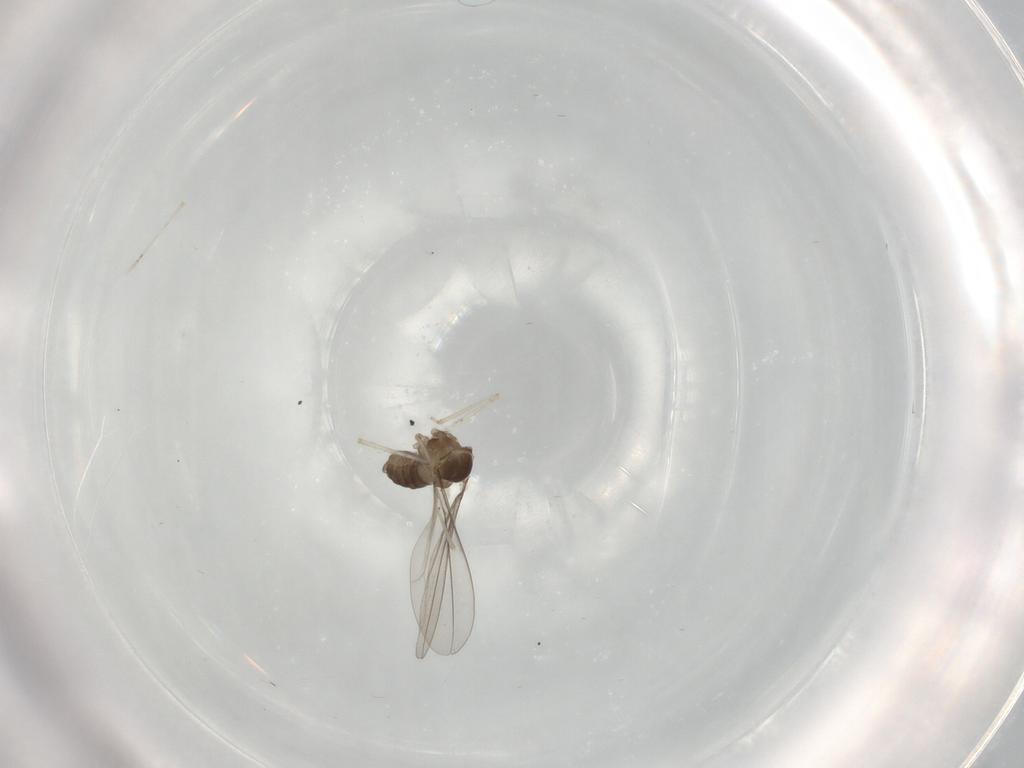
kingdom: Animalia
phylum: Arthropoda
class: Insecta
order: Diptera
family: Cecidomyiidae
